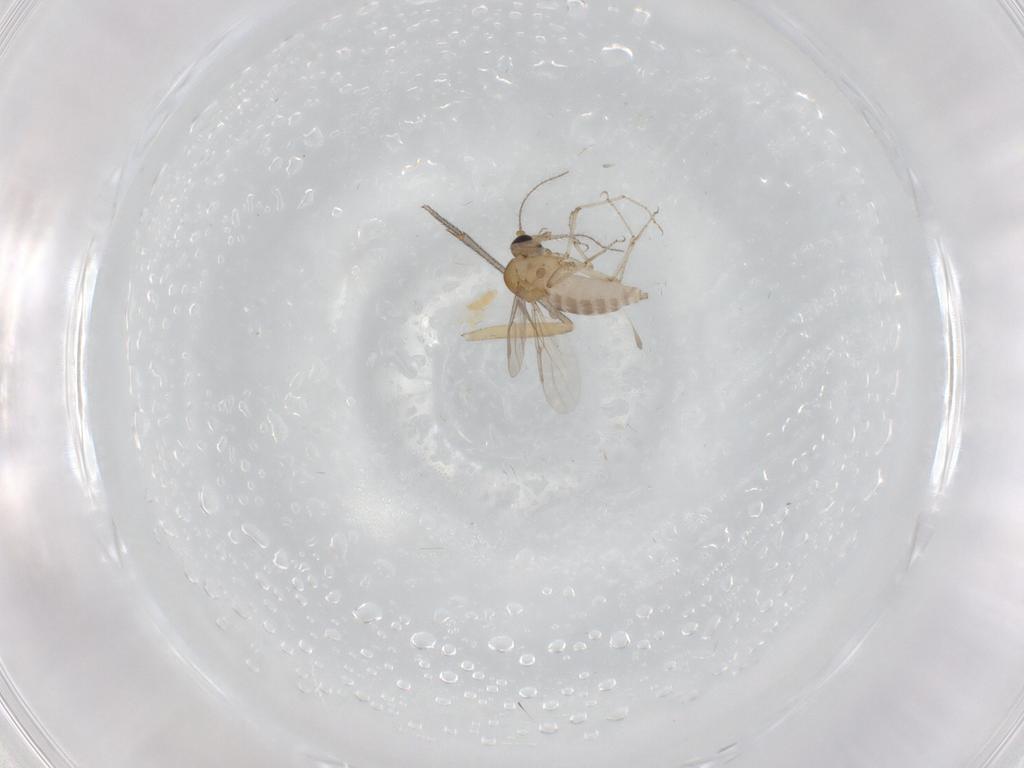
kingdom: Animalia
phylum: Arthropoda
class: Insecta
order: Diptera
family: Ceratopogonidae
